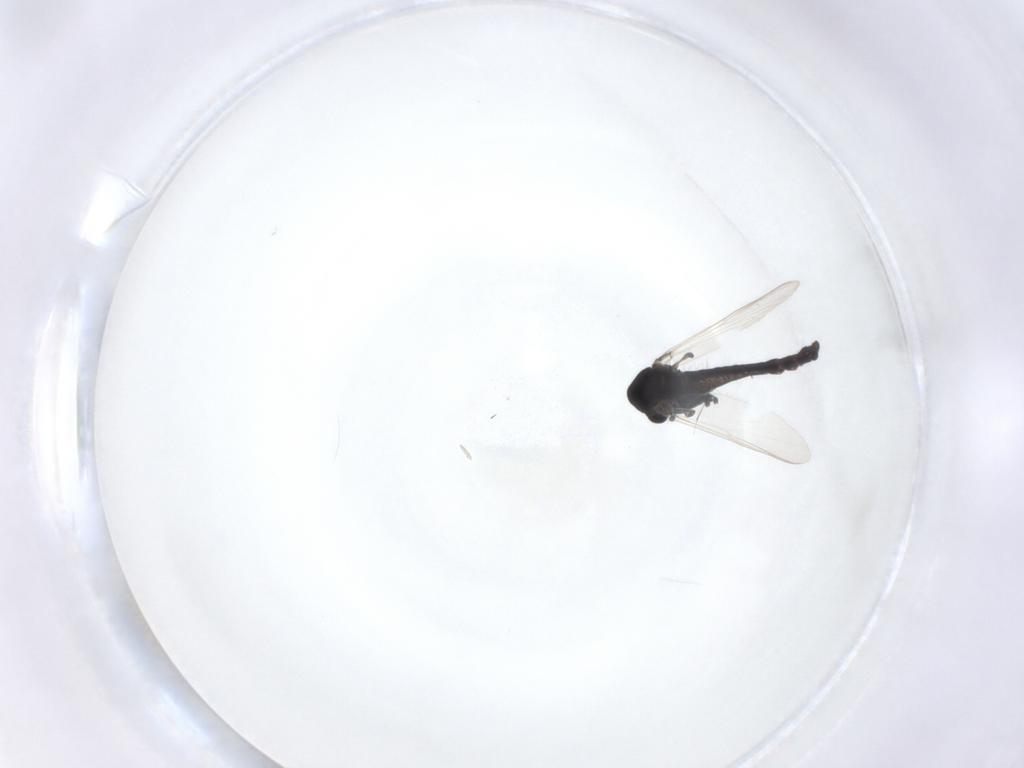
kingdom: Animalia
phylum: Arthropoda
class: Insecta
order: Diptera
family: Chironomidae
